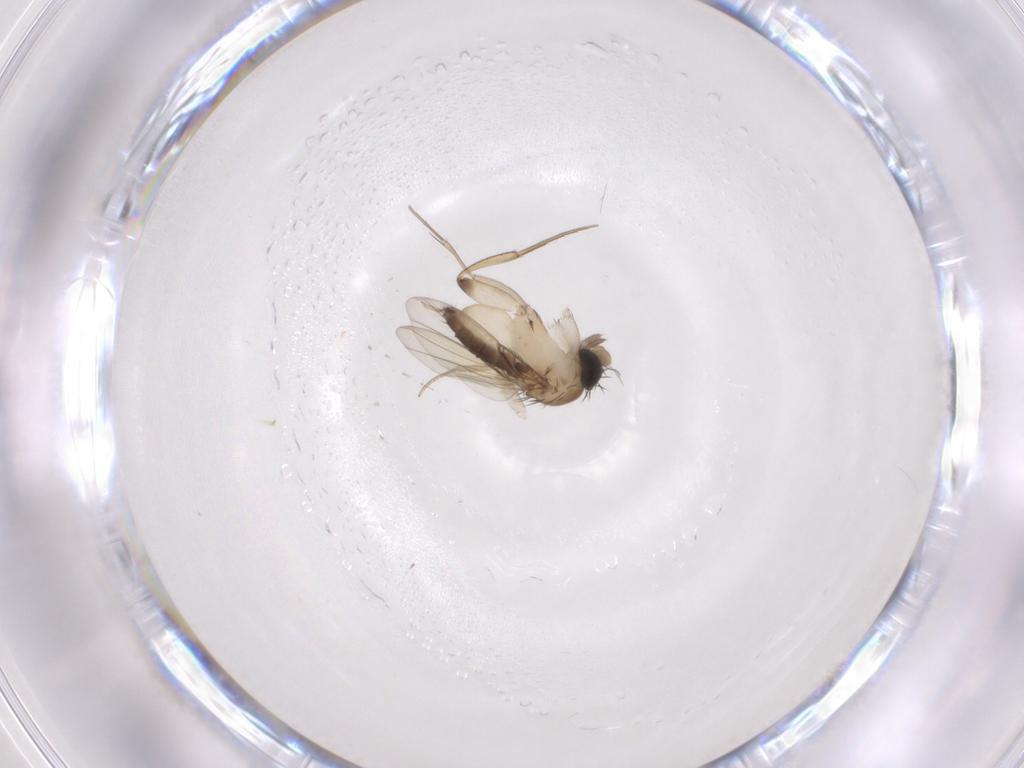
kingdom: Animalia
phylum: Arthropoda
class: Insecta
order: Diptera
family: Phoridae
